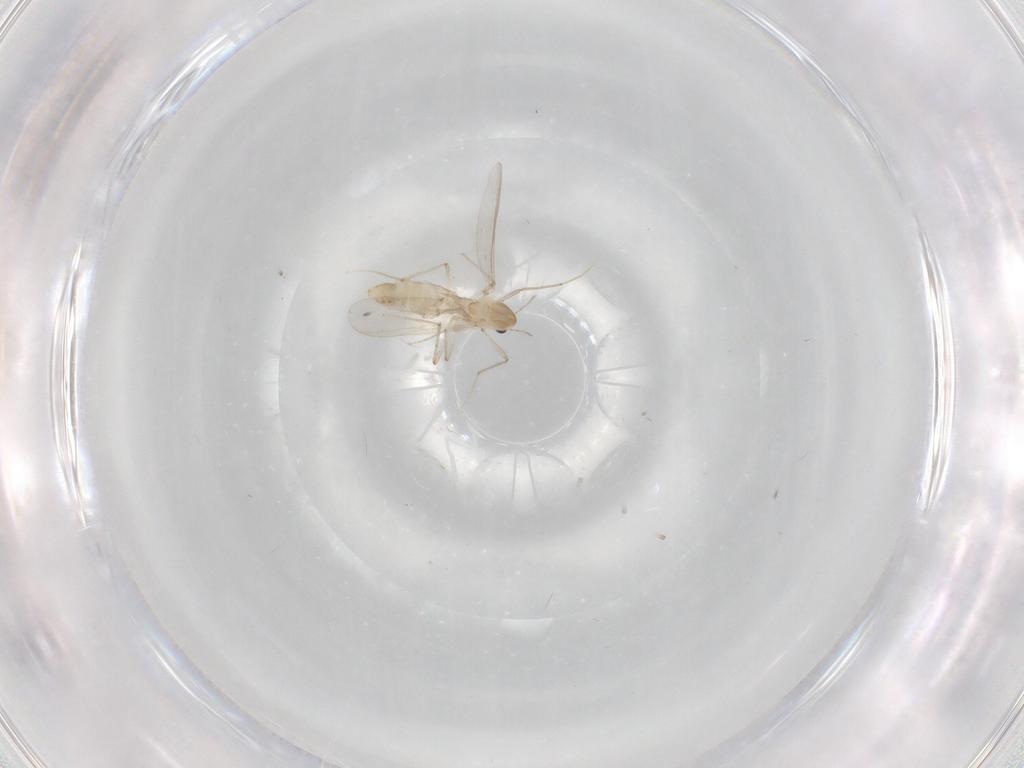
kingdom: Animalia
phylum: Arthropoda
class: Insecta
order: Diptera
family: Chironomidae
